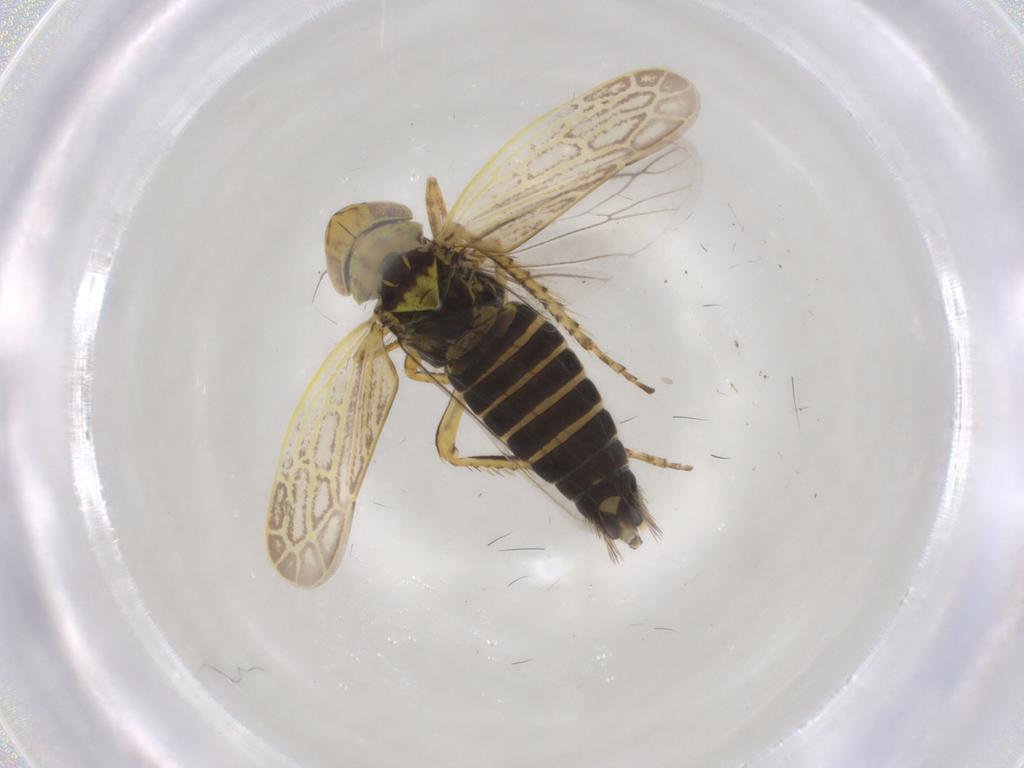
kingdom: Animalia
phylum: Arthropoda
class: Insecta
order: Hemiptera
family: Cicadellidae
